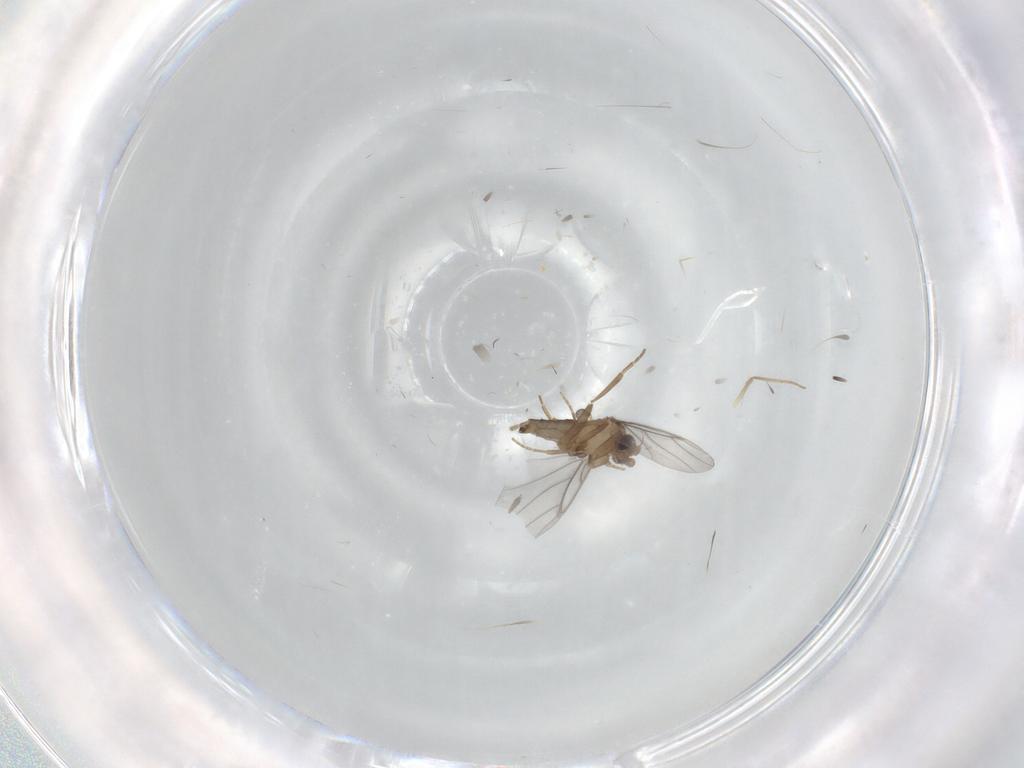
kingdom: Animalia
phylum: Arthropoda
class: Insecta
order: Diptera
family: Chironomidae
